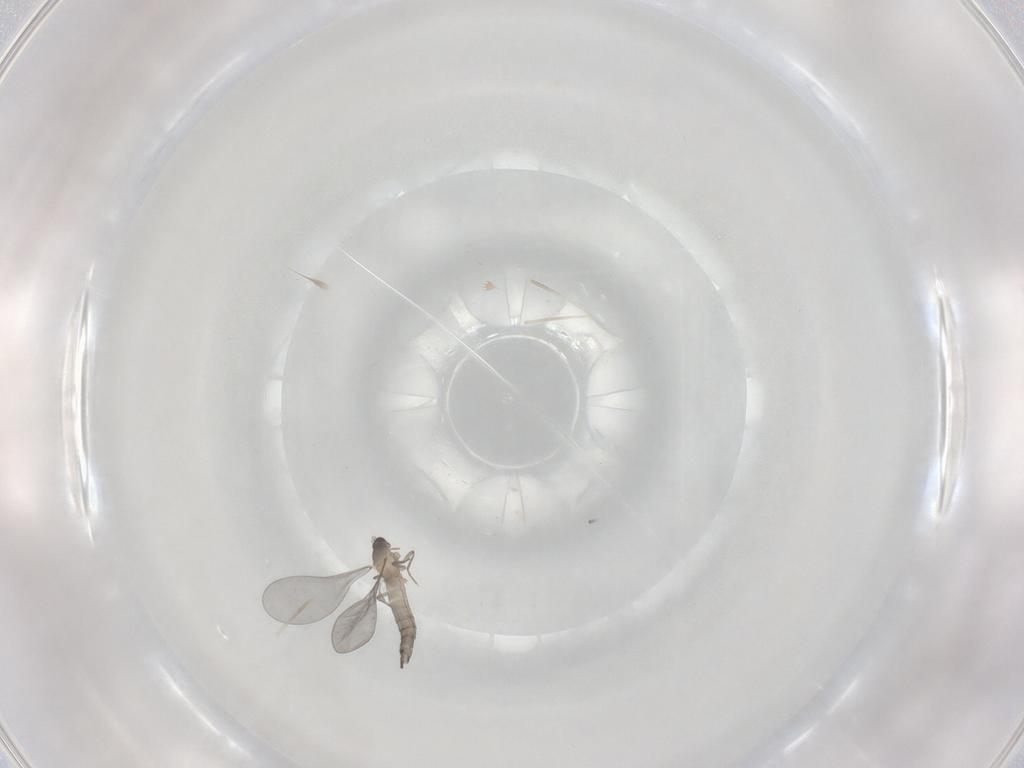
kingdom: Animalia
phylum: Arthropoda
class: Insecta
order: Diptera
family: Cecidomyiidae
